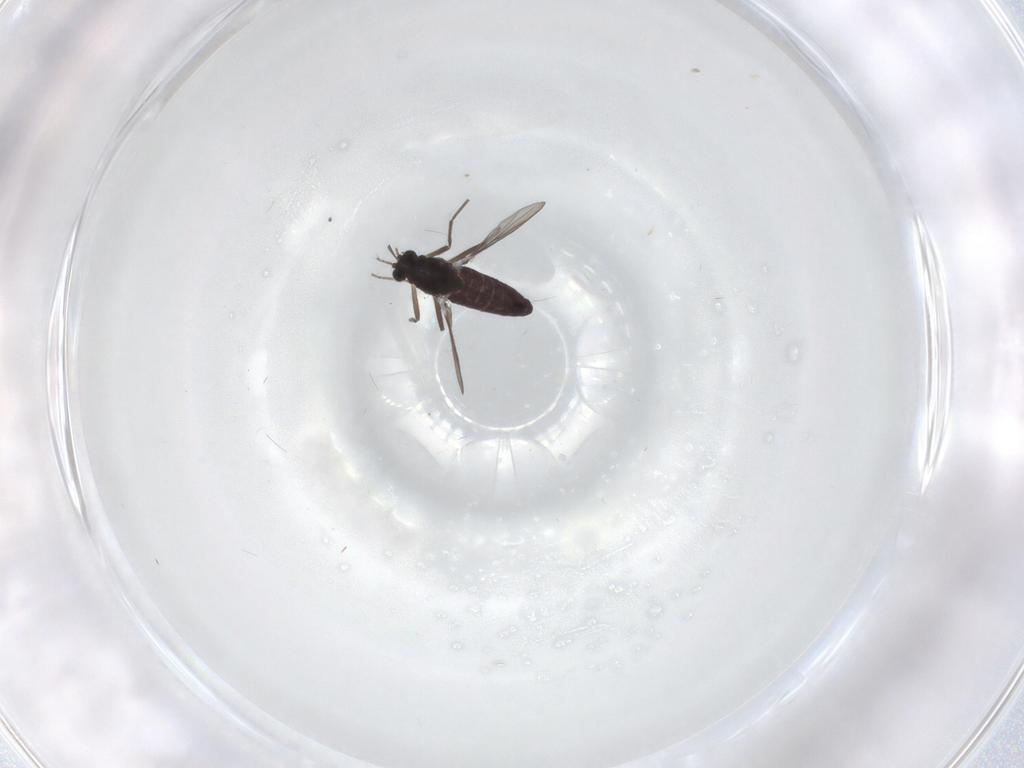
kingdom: Animalia
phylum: Arthropoda
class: Insecta
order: Diptera
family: Chironomidae
